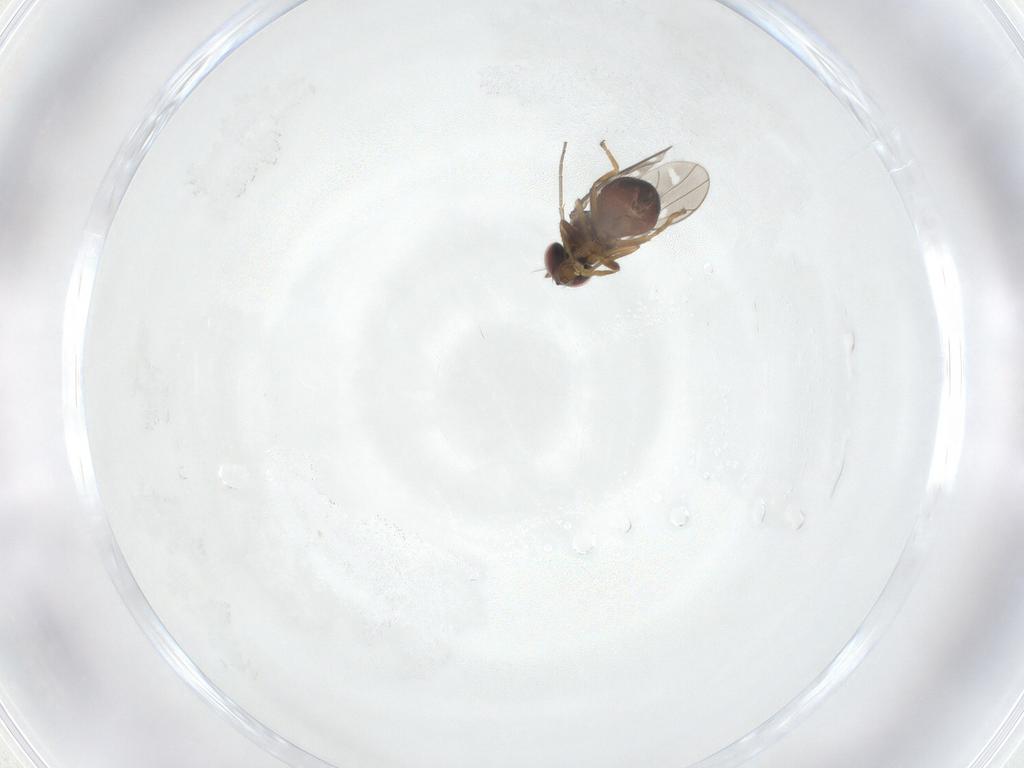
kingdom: Animalia
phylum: Arthropoda
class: Insecta
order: Diptera
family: Ephydridae
